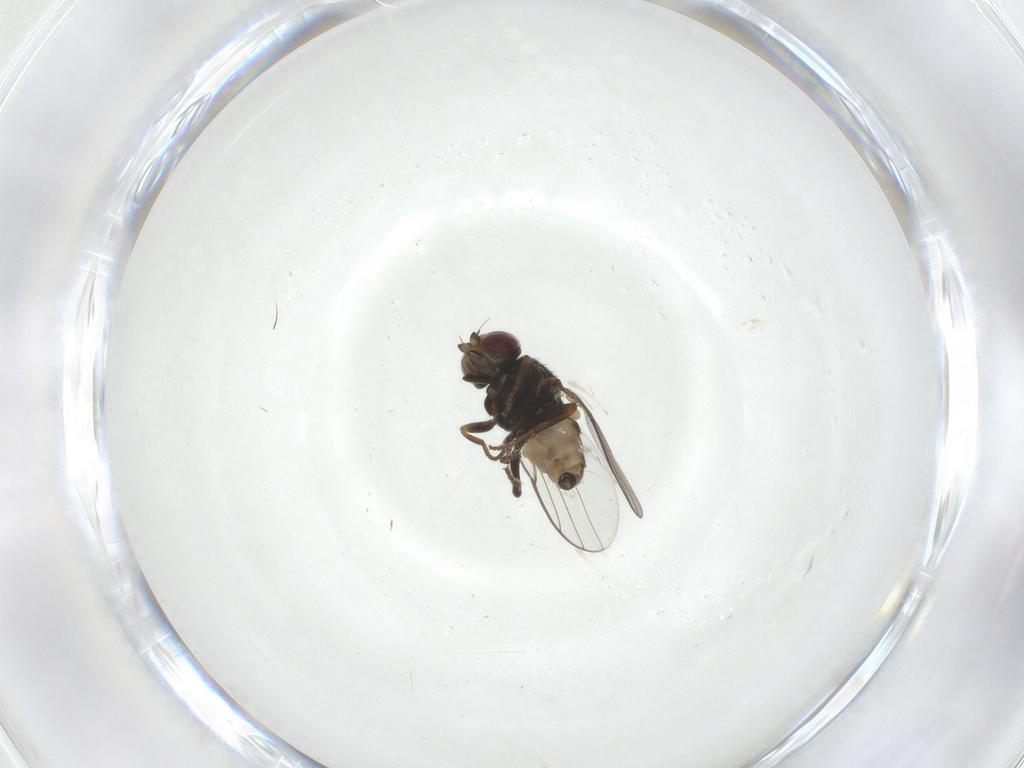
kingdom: Animalia
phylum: Arthropoda
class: Insecta
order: Diptera
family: Chloropidae
